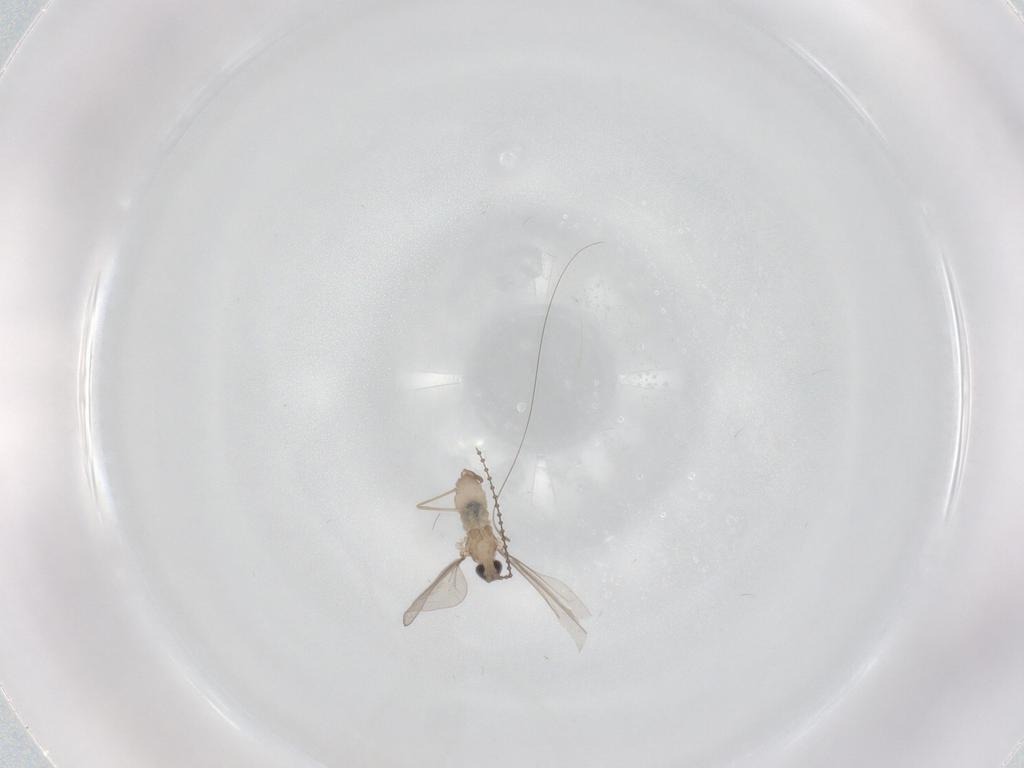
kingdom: Animalia
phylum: Arthropoda
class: Insecta
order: Diptera
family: Cecidomyiidae
